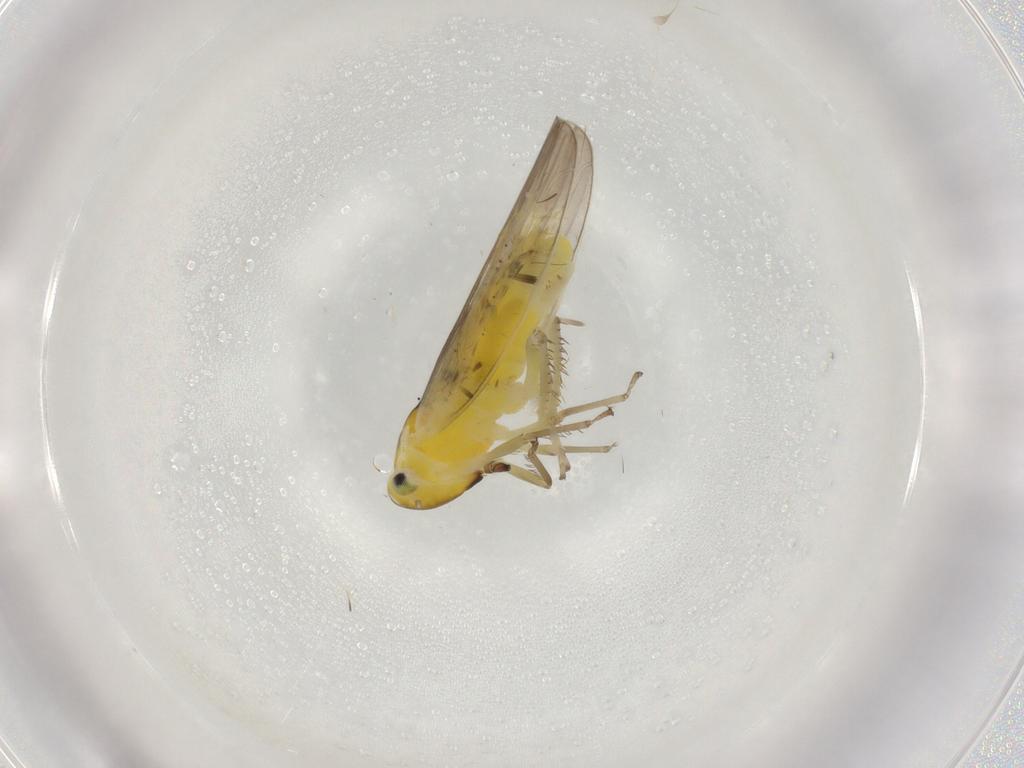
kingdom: Animalia
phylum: Arthropoda
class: Insecta
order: Hemiptera
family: Cicadellidae
